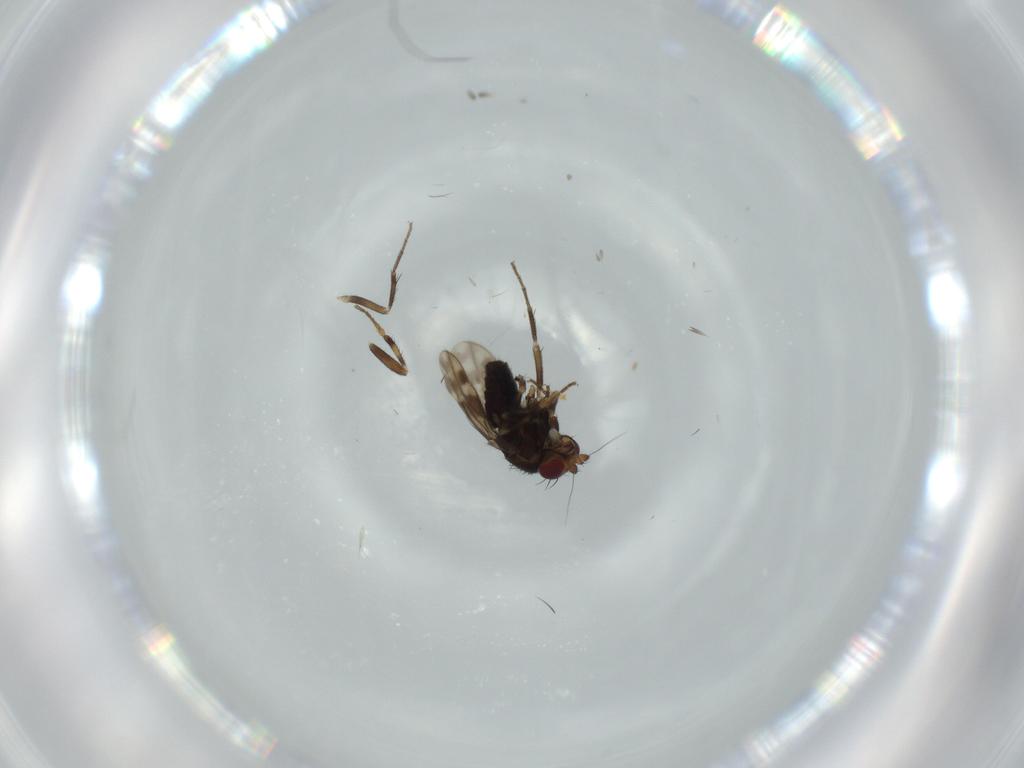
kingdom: Animalia
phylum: Arthropoda
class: Insecta
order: Diptera
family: Sphaeroceridae
